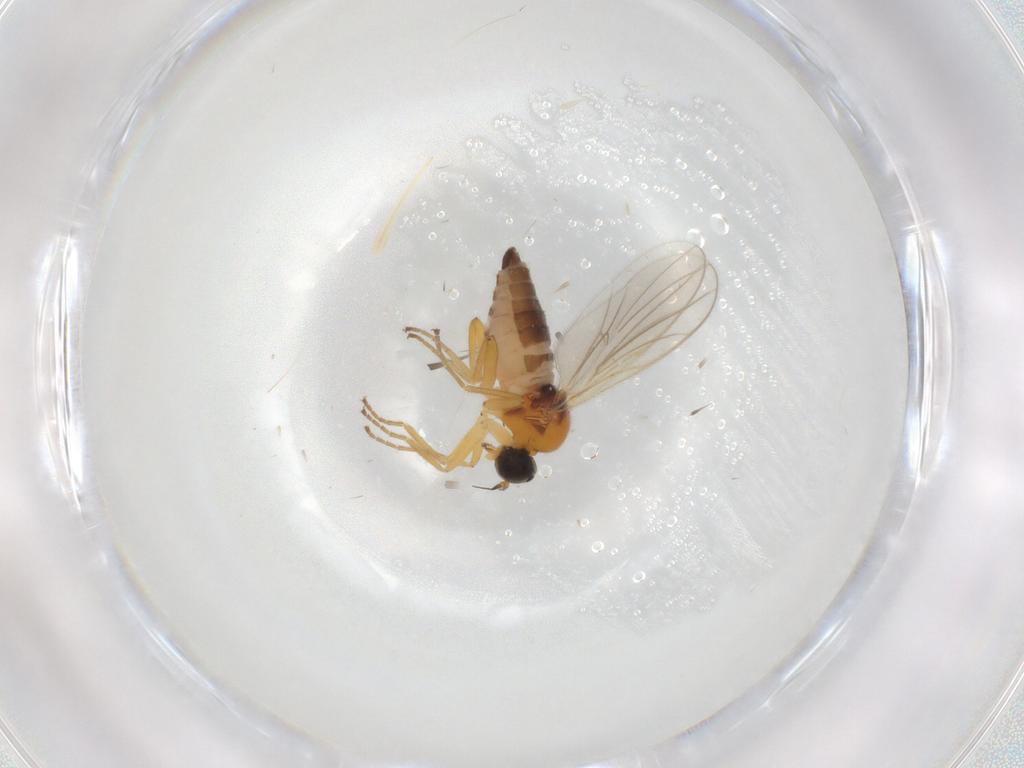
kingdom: Animalia
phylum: Arthropoda
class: Insecta
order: Diptera
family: Hybotidae
